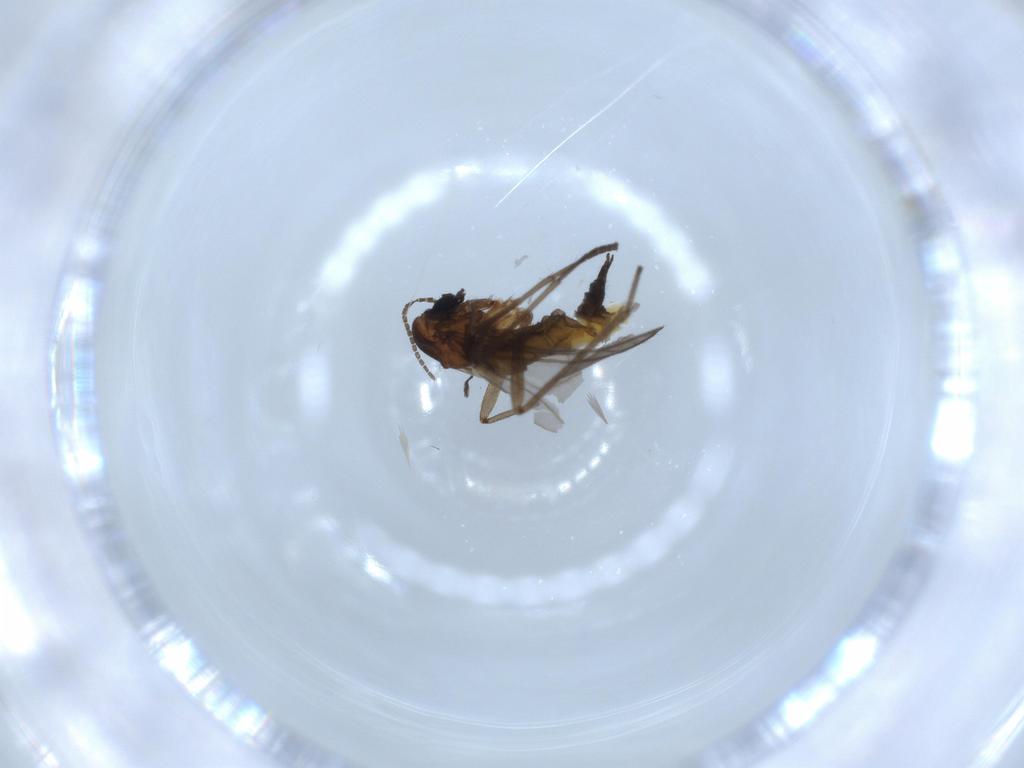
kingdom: Animalia
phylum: Arthropoda
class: Insecta
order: Diptera
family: Sciaridae
